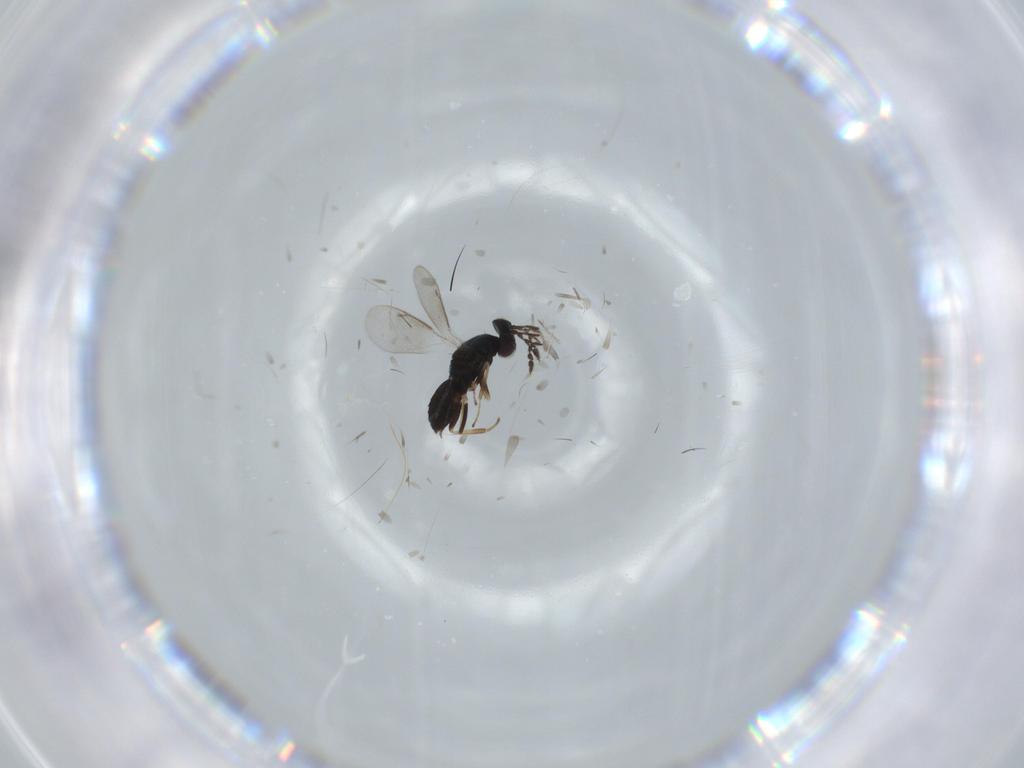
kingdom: Animalia
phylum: Arthropoda
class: Insecta
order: Hymenoptera
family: Eulophidae
